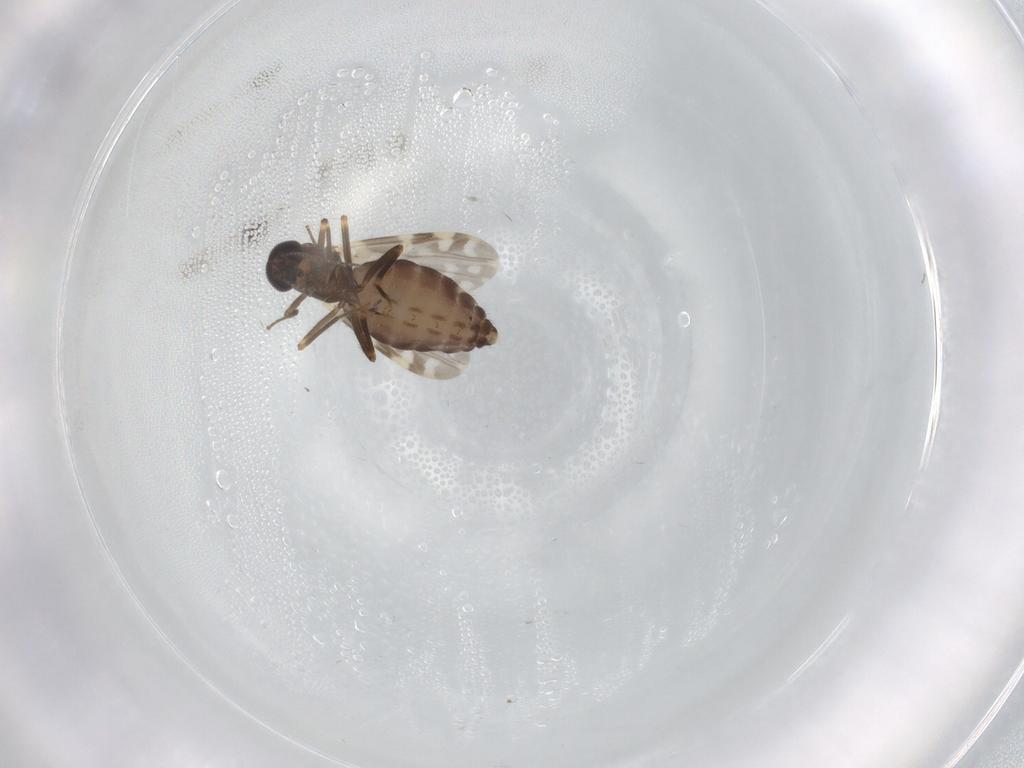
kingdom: Animalia
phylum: Arthropoda
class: Insecta
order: Diptera
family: Ceratopogonidae
